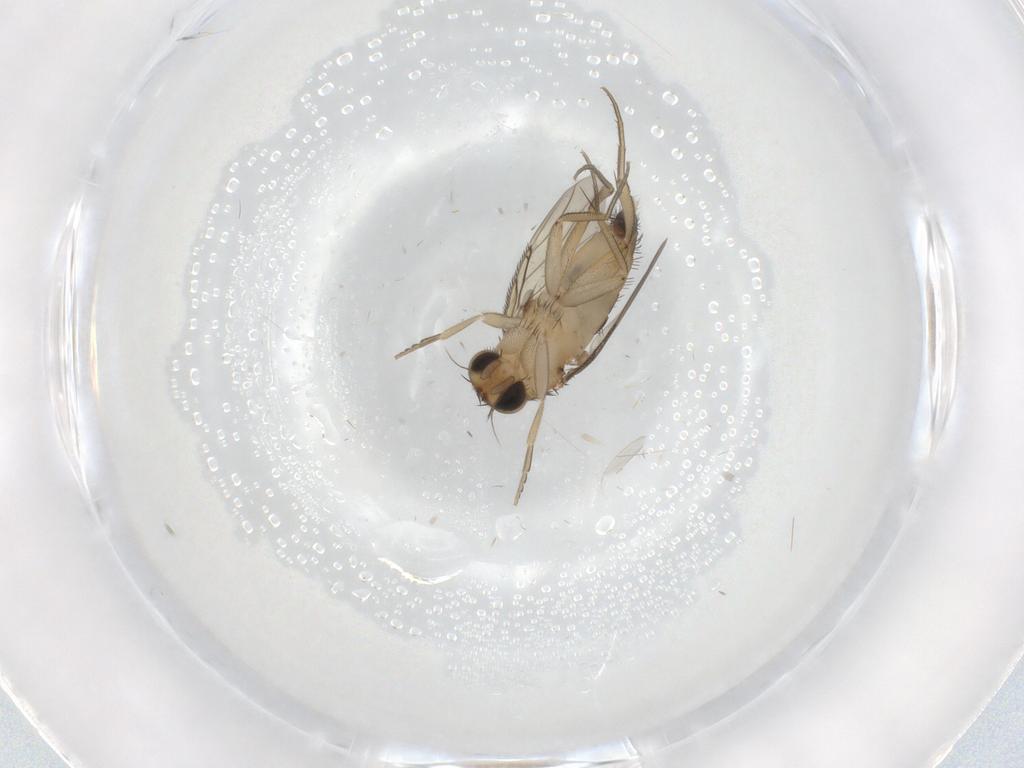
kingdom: Animalia
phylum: Arthropoda
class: Insecta
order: Diptera
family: Phoridae
